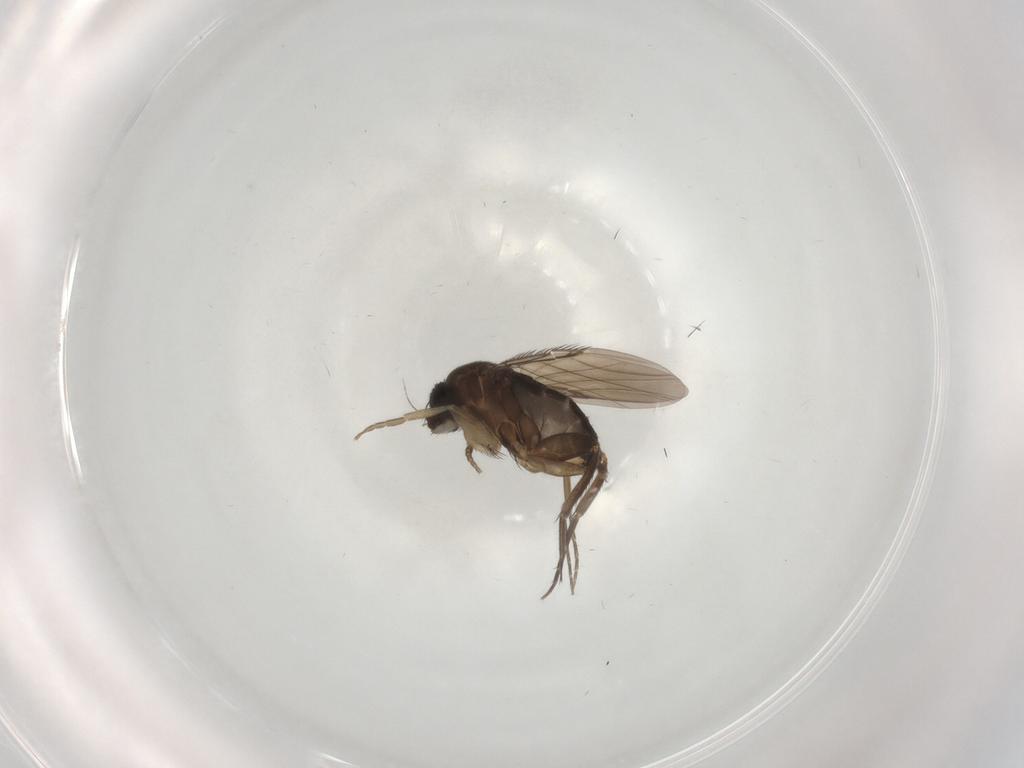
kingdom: Animalia
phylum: Arthropoda
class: Insecta
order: Diptera
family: Phoridae
